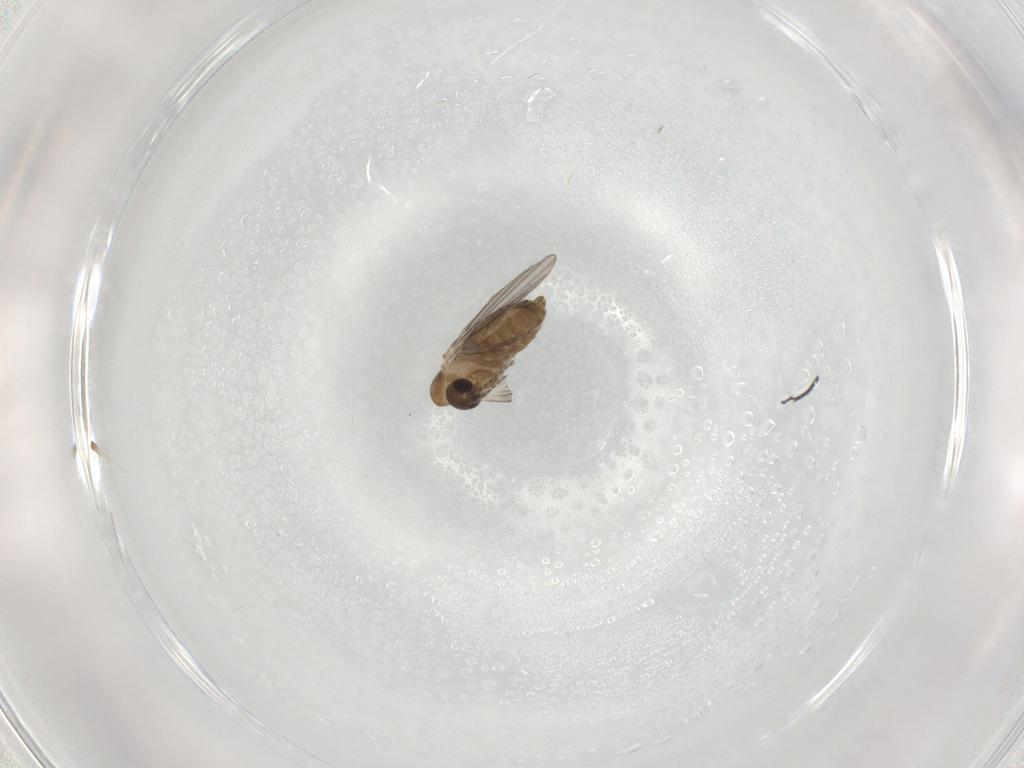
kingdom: Animalia
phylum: Arthropoda
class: Insecta
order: Diptera
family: Psychodidae
